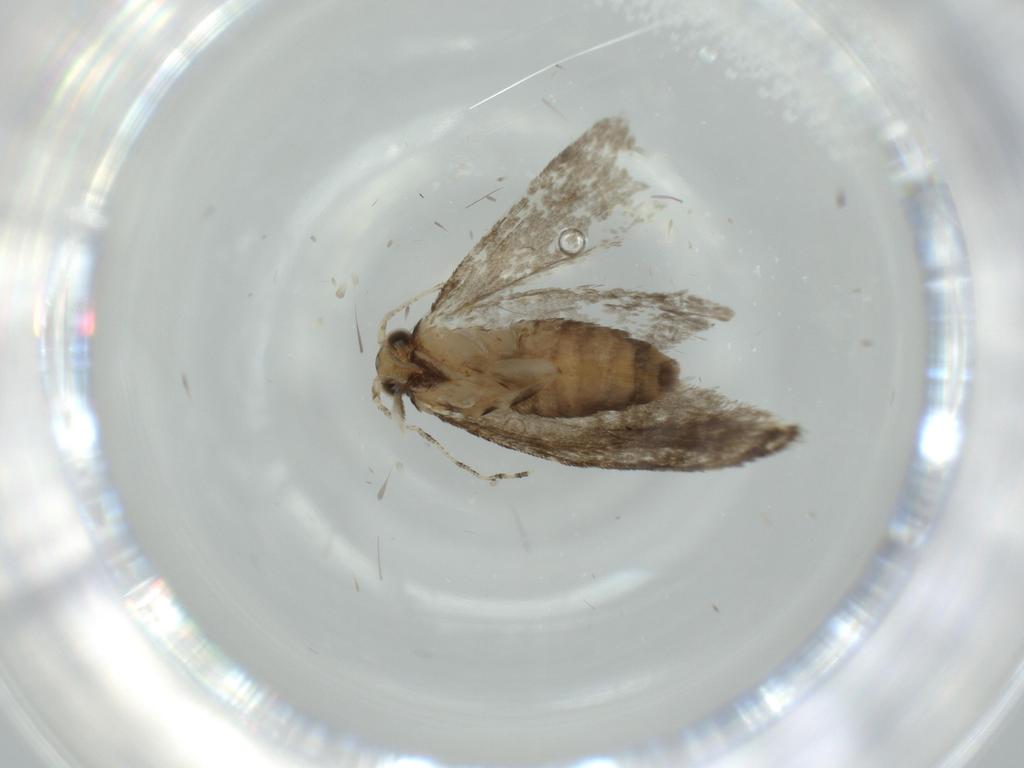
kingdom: Animalia
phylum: Arthropoda
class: Insecta
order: Lepidoptera
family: Tineidae
